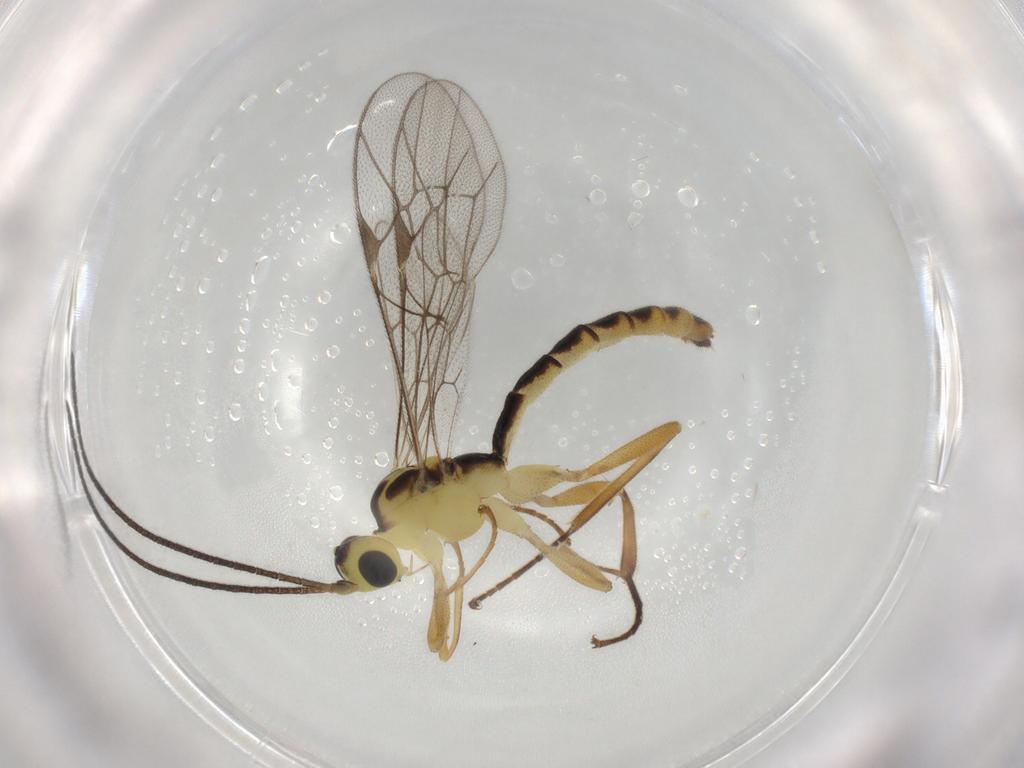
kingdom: Animalia
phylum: Arthropoda
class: Insecta
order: Hymenoptera
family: Ichneumonidae
